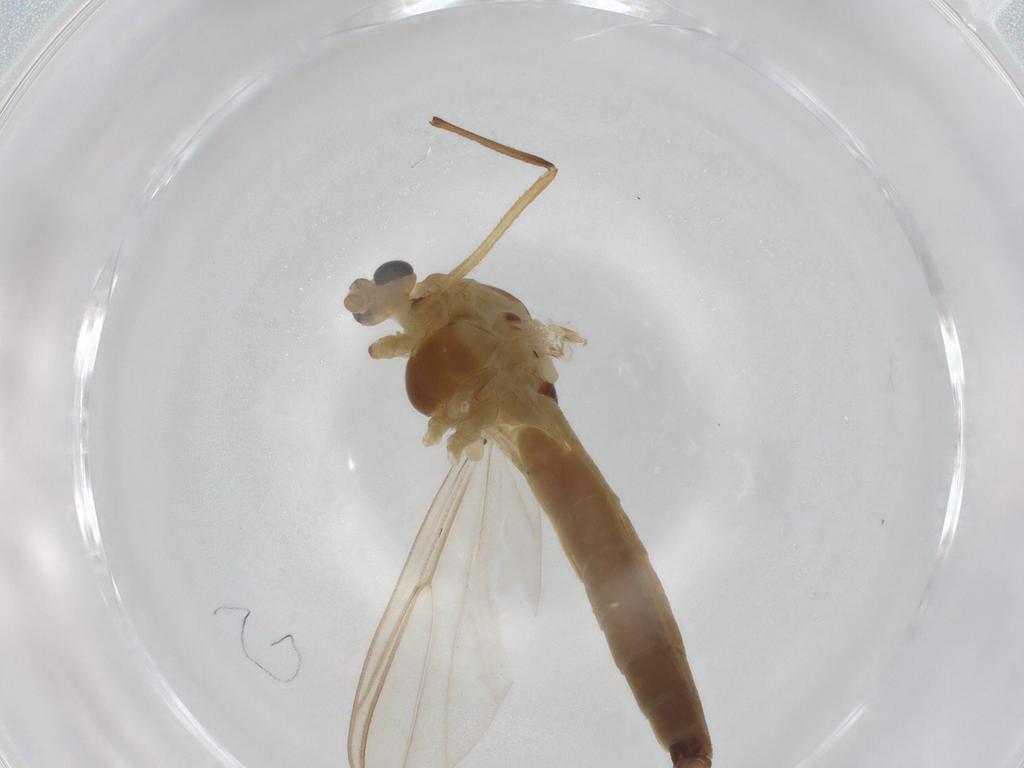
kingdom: Animalia
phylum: Arthropoda
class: Insecta
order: Diptera
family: Chironomidae
